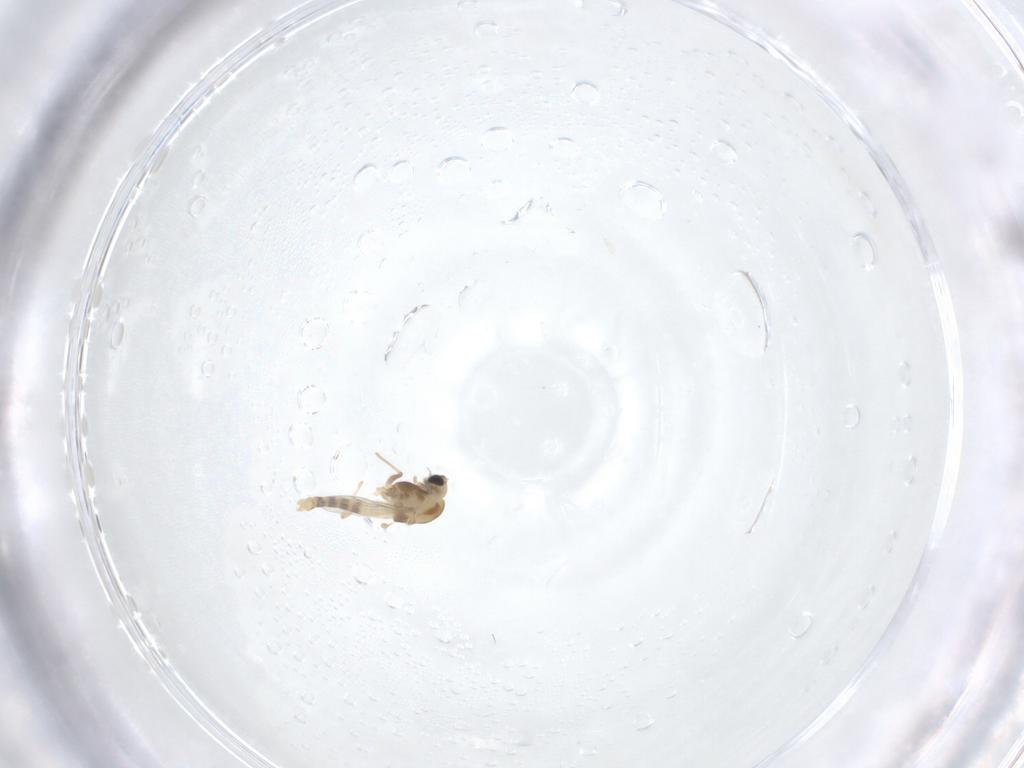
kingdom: Animalia
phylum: Arthropoda
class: Insecta
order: Diptera
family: Chironomidae
